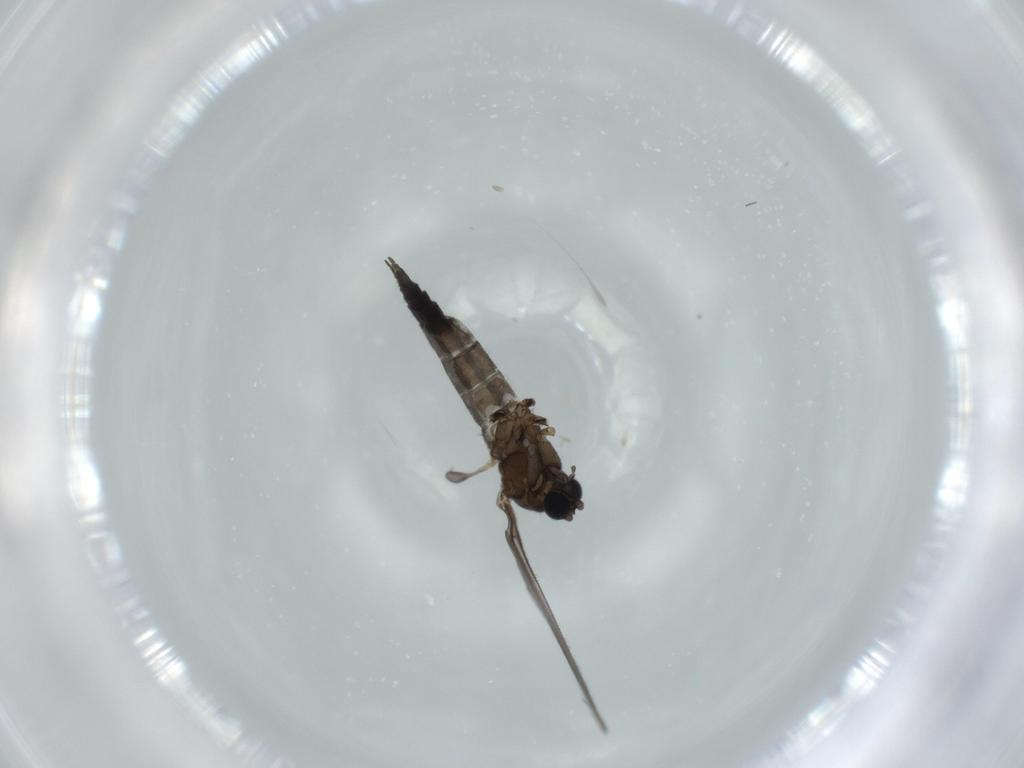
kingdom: Animalia
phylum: Arthropoda
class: Insecta
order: Diptera
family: Sciaridae
